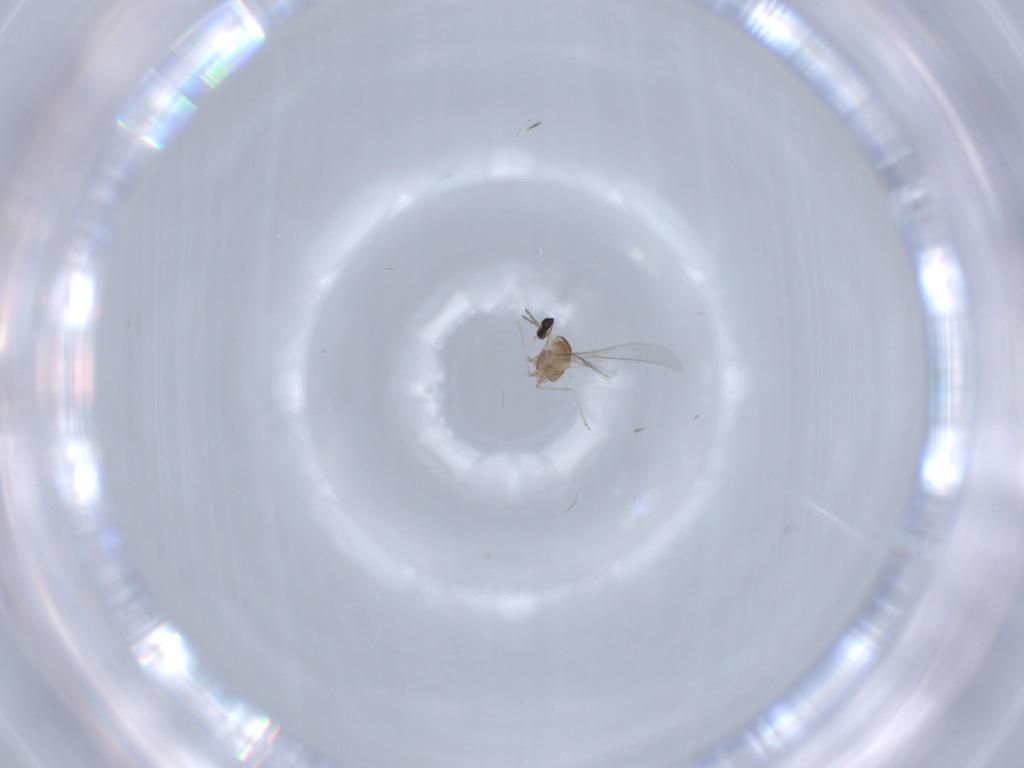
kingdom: Animalia
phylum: Arthropoda
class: Insecta
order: Diptera
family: Cecidomyiidae
